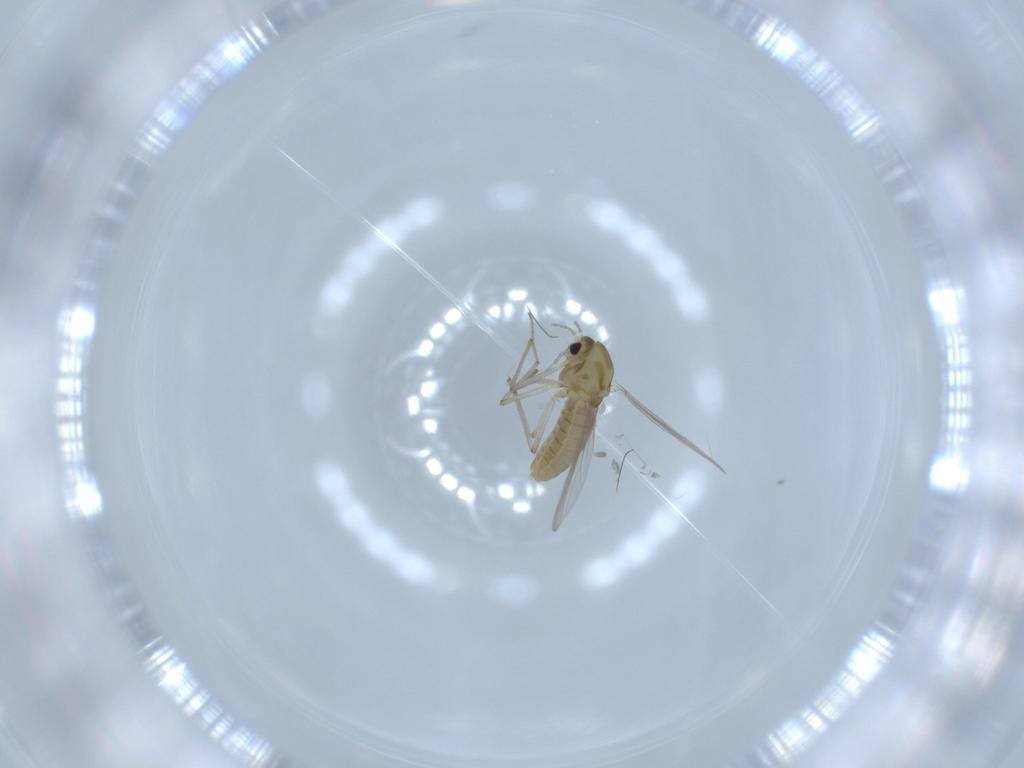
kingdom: Animalia
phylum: Arthropoda
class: Insecta
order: Diptera
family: Chironomidae
